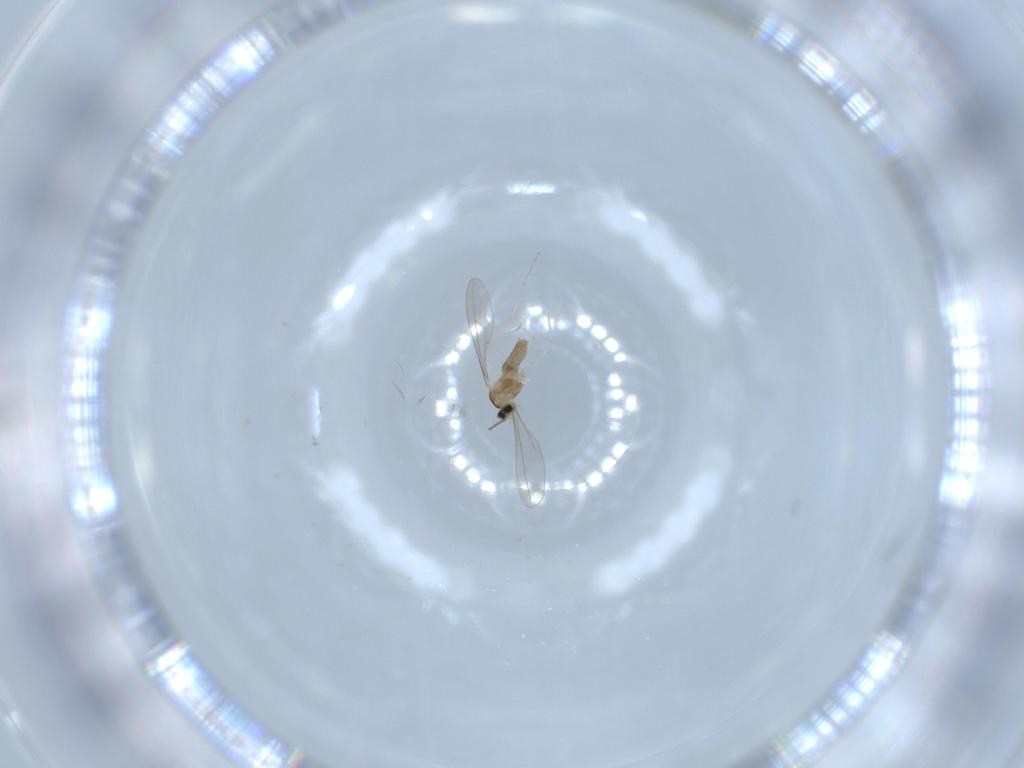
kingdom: Animalia
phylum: Arthropoda
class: Insecta
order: Diptera
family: Cecidomyiidae
